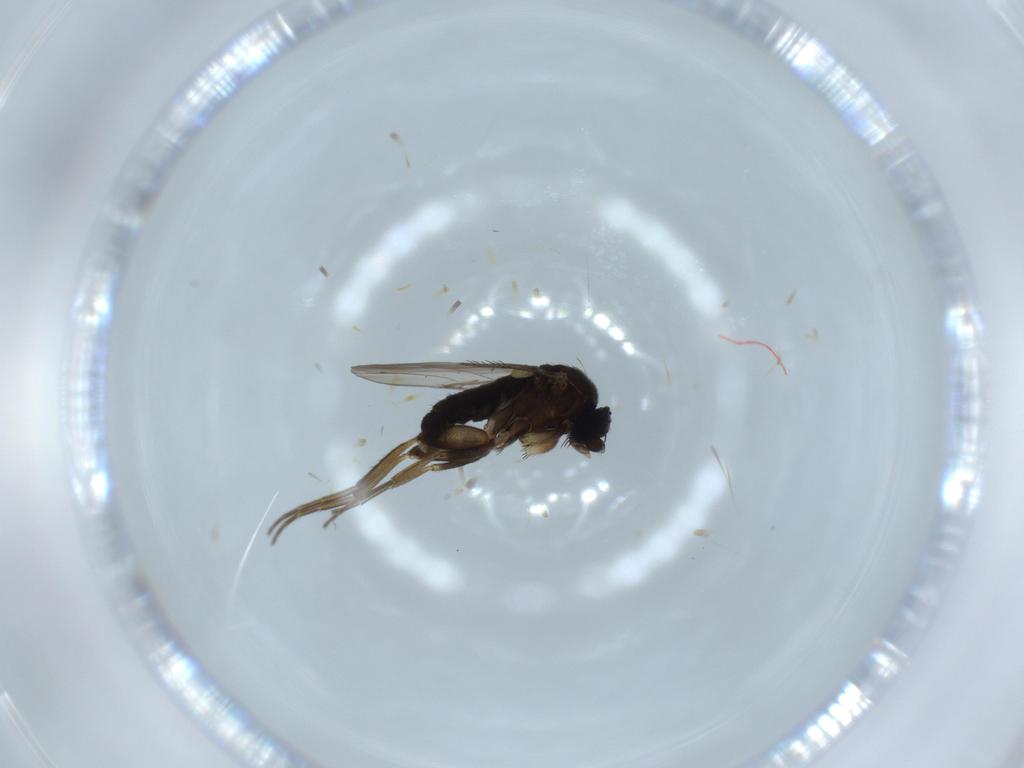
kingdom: Animalia
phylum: Arthropoda
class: Insecta
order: Diptera
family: Phoridae
